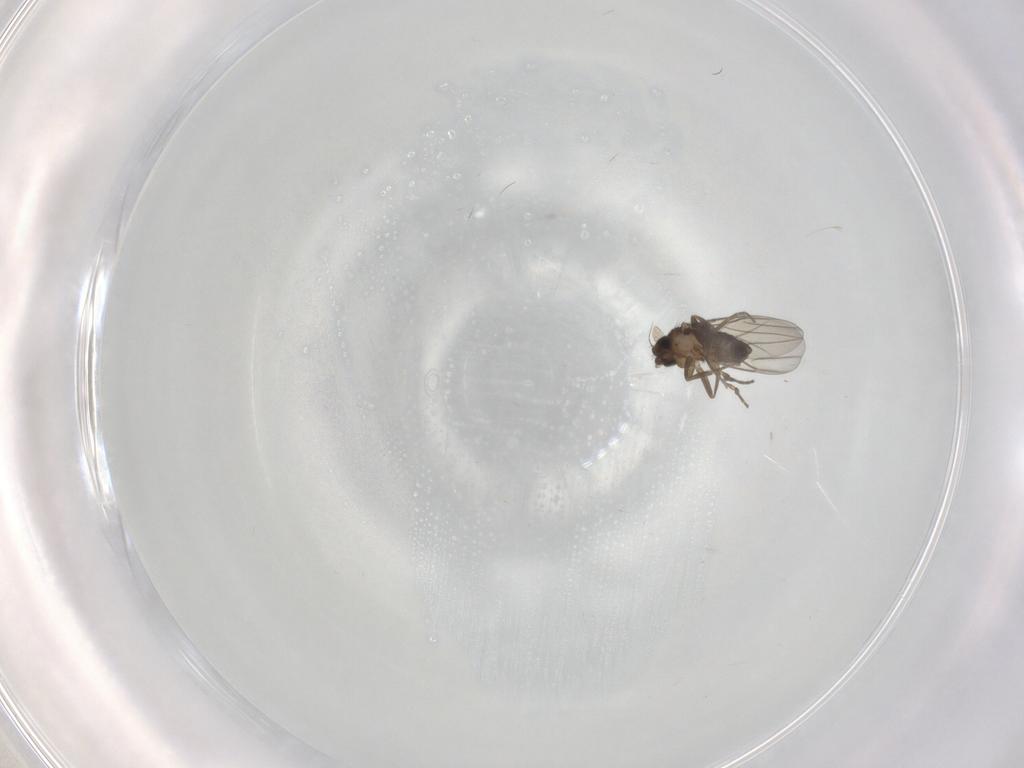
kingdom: Animalia
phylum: Arthropoda
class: Insecta
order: Diptera
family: Phoridae
